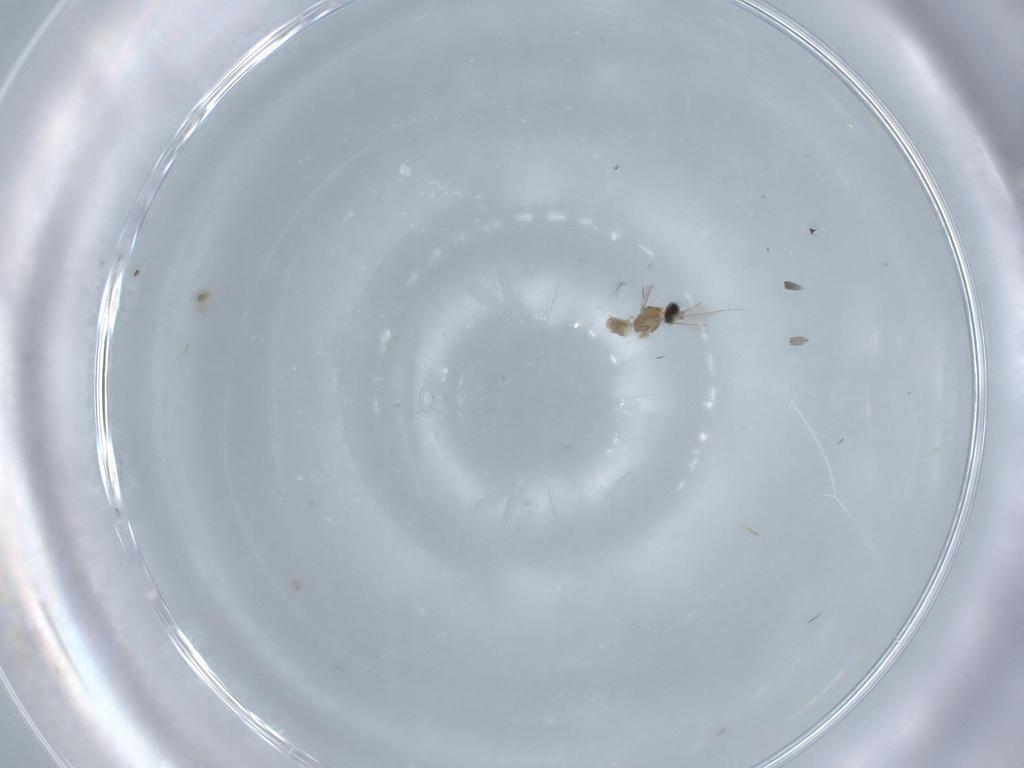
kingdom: Animalia
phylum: Arthropoda
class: Insecta
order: Diptera
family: Cecidomyiidae
